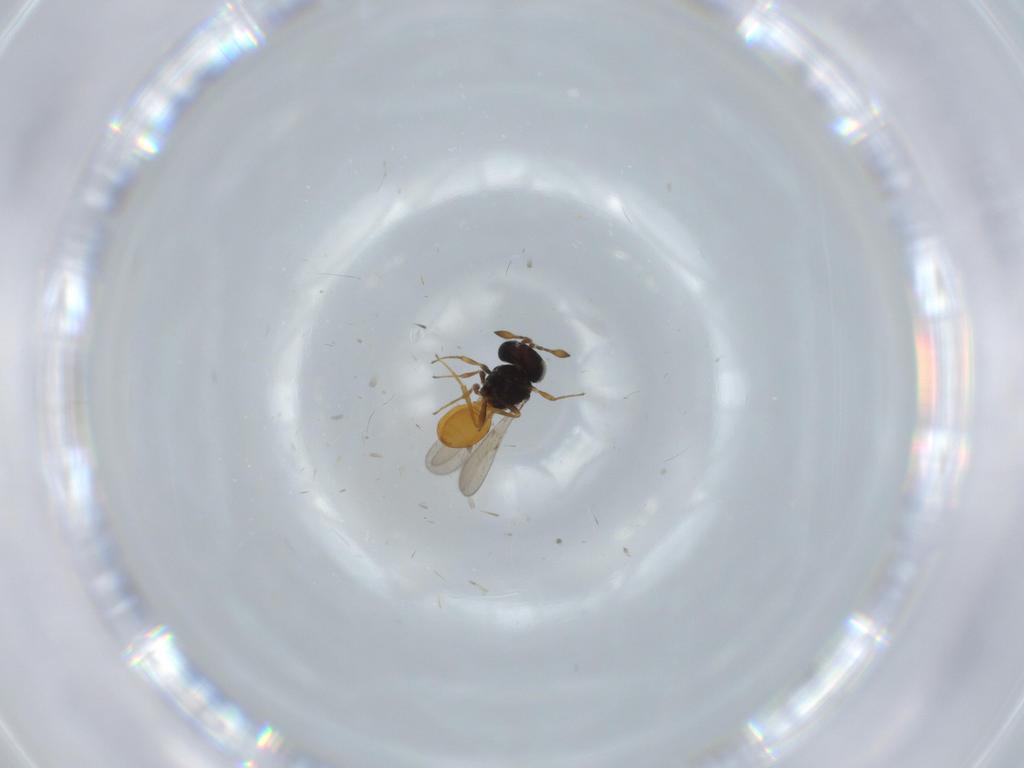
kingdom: Animalia
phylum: Arthropoda
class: Insecta
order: Hymenoptera
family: Scelionidae
